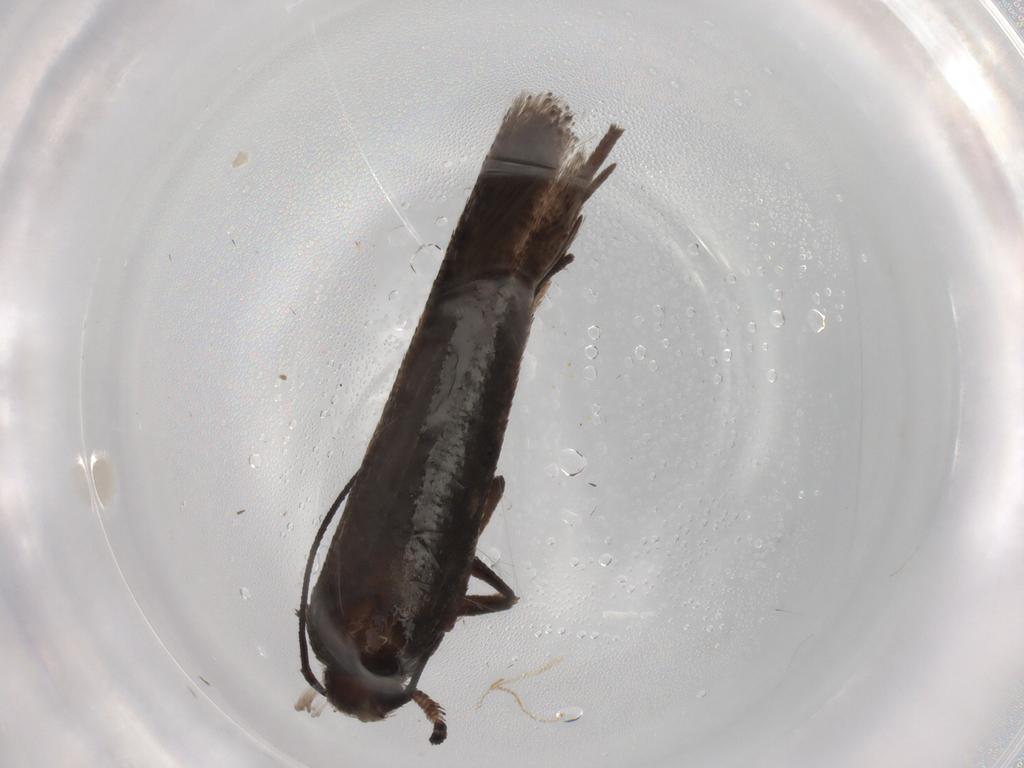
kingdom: Animalia
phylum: Arthropoda
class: Insecta
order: Lepidoptera
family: Gelechiidae
